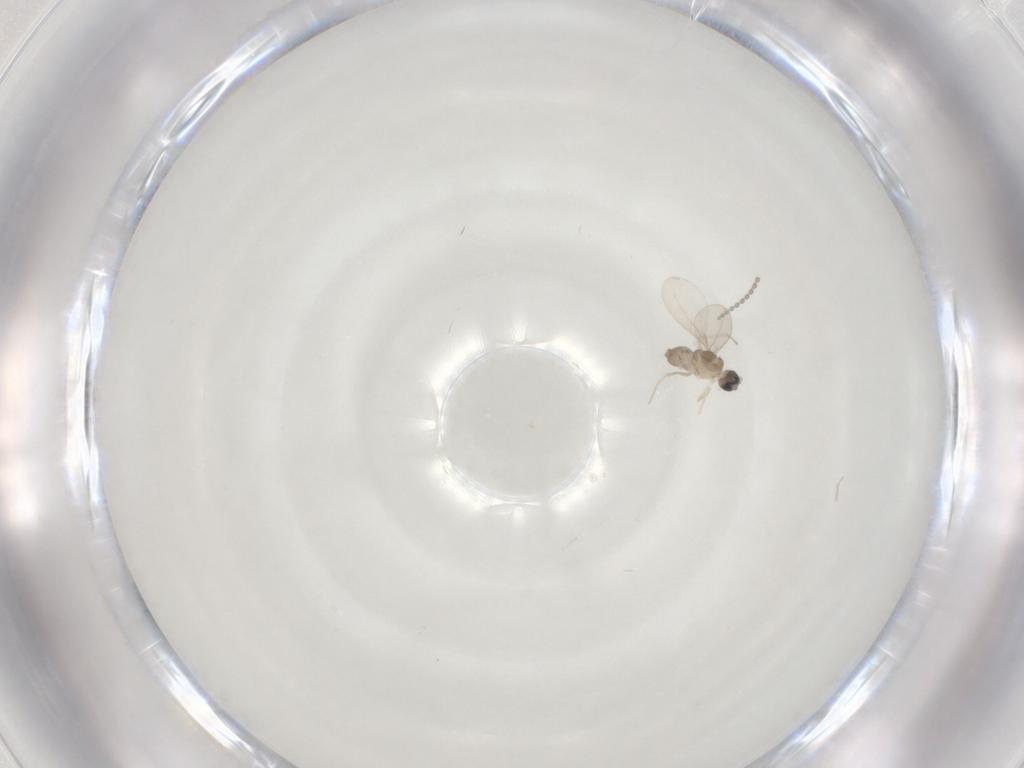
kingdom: Animalia
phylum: Arthropoda
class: Insecta
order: Diptera
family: Cecidomyiidae
